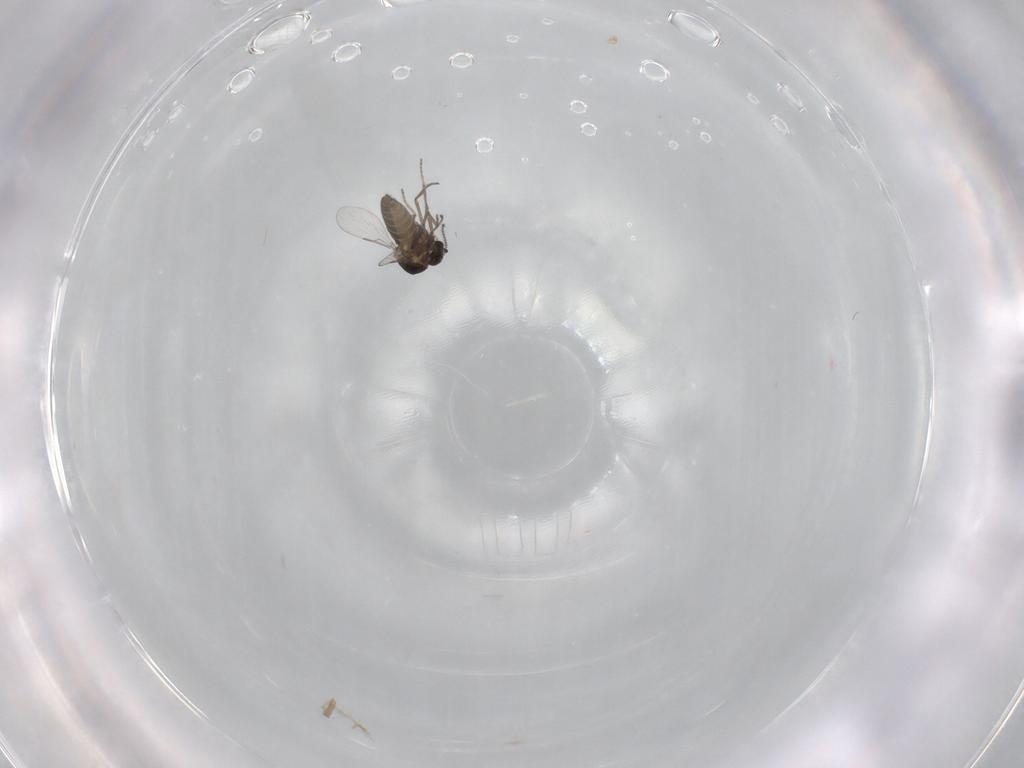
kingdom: Animalia
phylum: Arthropoda
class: Insecta
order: Diptera
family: Ceratopogonidae
